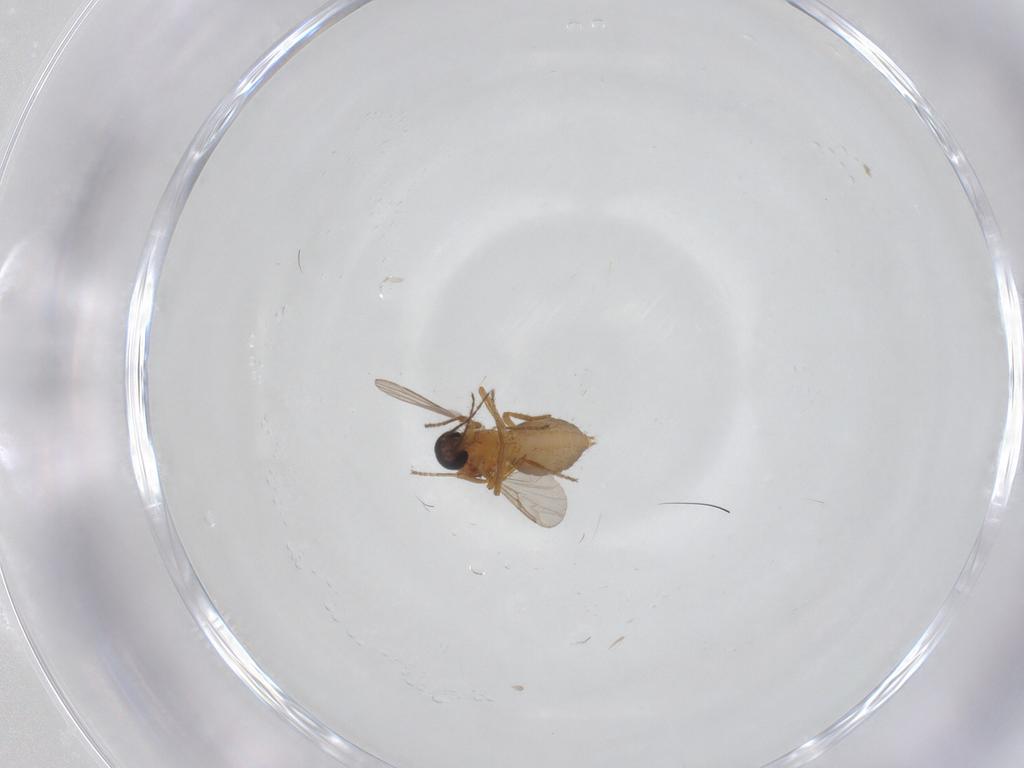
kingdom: Animalia
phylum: Arthropoda
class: Insecta
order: Diptera
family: Ceratopogonidae
